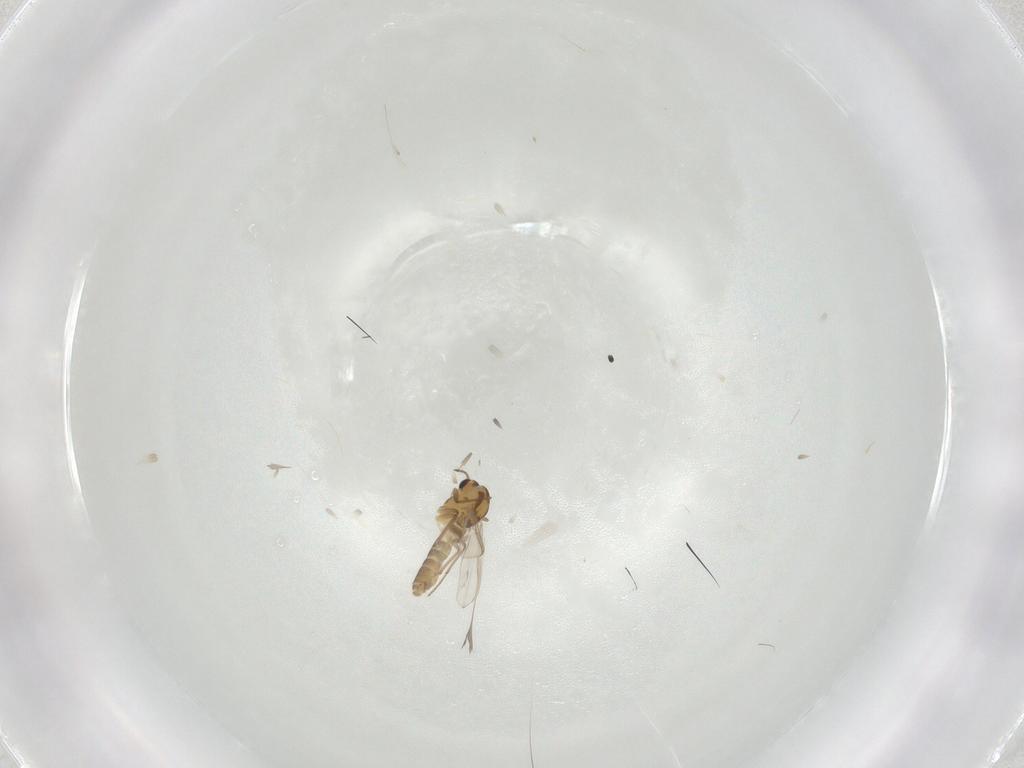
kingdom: Animalia
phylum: Arthropoda
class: Insecta
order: Diptera
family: Chironomidae
